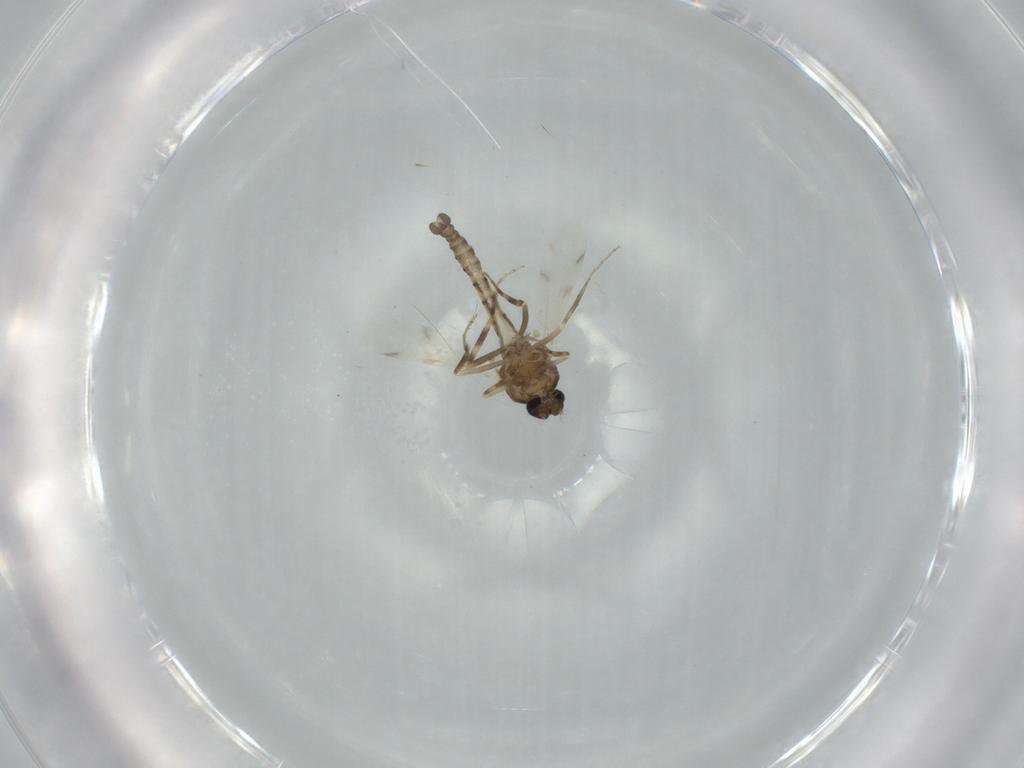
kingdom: Animalia
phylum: Arthropoda
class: Insecta
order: Diptera
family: Ceratopogonidae
